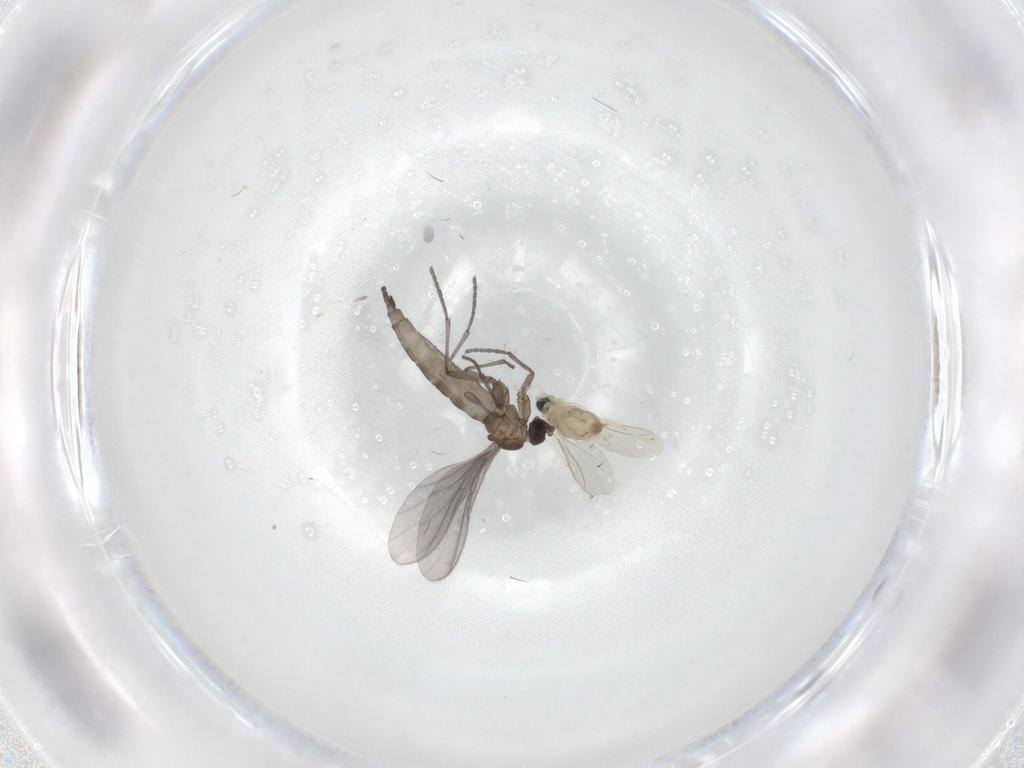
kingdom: Animalia
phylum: Arthropoda
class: Insecta
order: Diptera
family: Sciaridae
